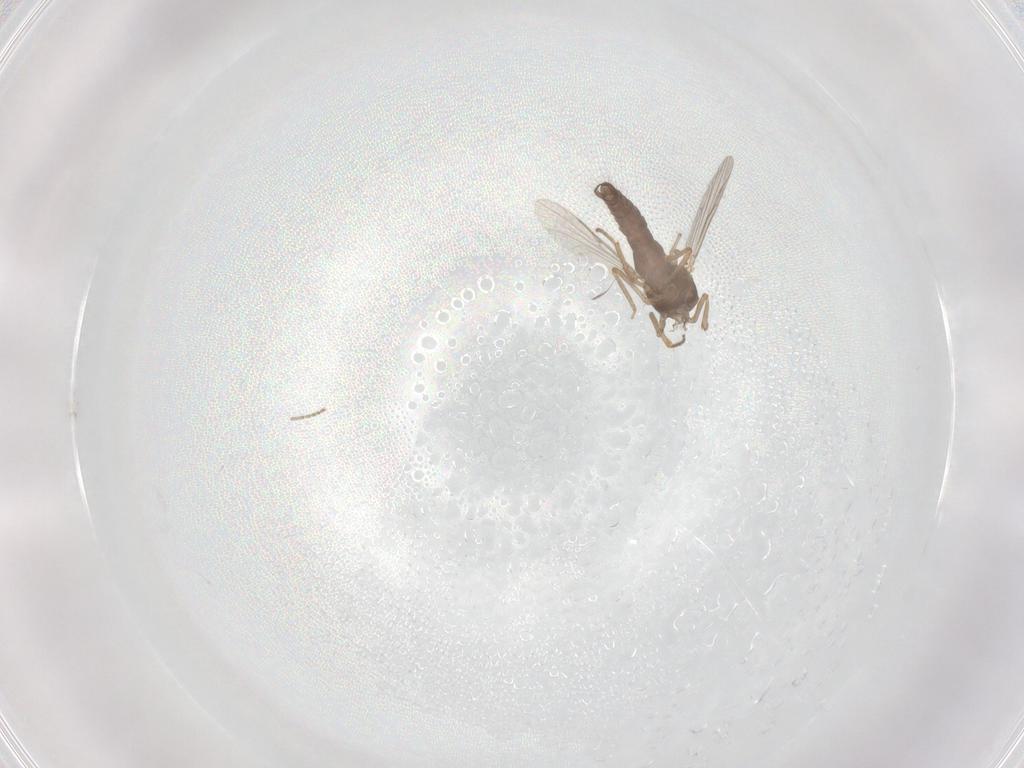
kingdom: Animalia
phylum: Arthropoda
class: Insecta
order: Diptera
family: Ceratopogonidae
